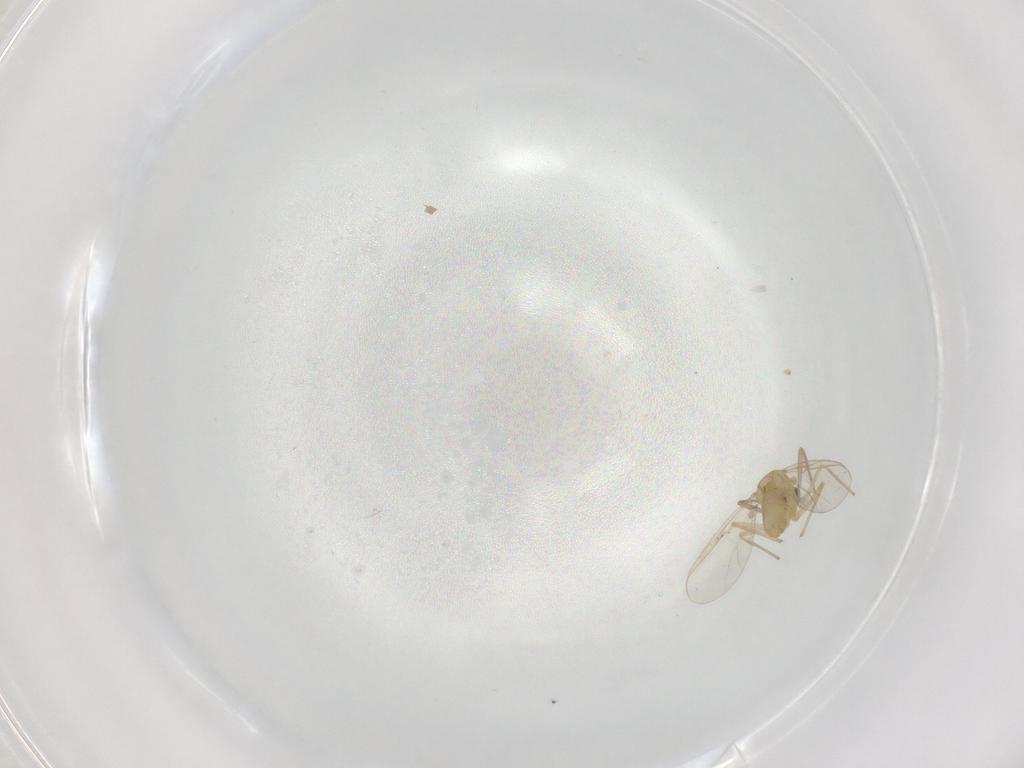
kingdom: Animalia
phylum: Arthropoda
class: Insecta
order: Diptera
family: Chironomidae
